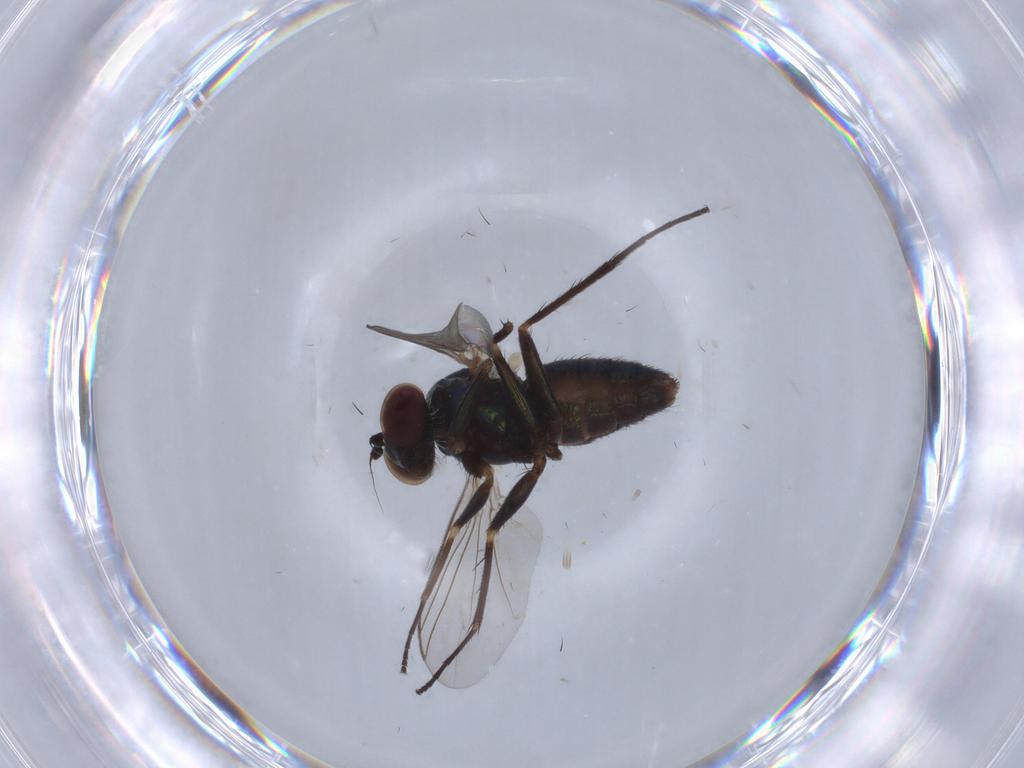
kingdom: Animalia
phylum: Arthropoda
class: Insecta
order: Diptera
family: Dolichopodidae
